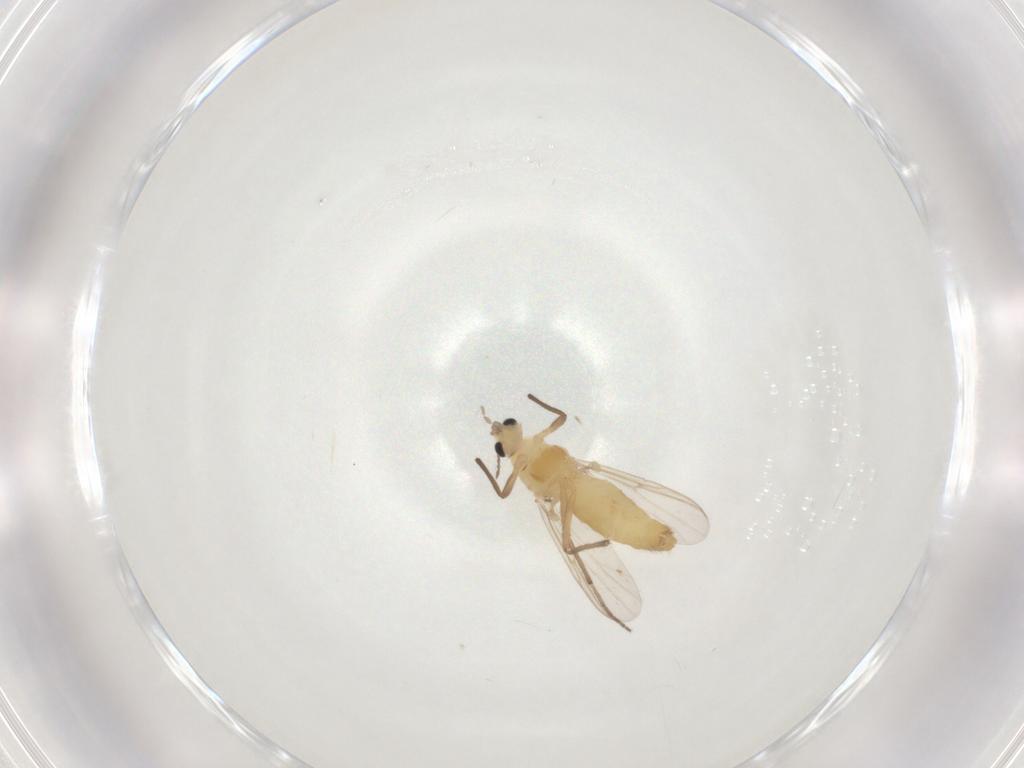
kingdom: Animalia
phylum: Arthropoda
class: Insecta
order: Diptera
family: Chironomidae
